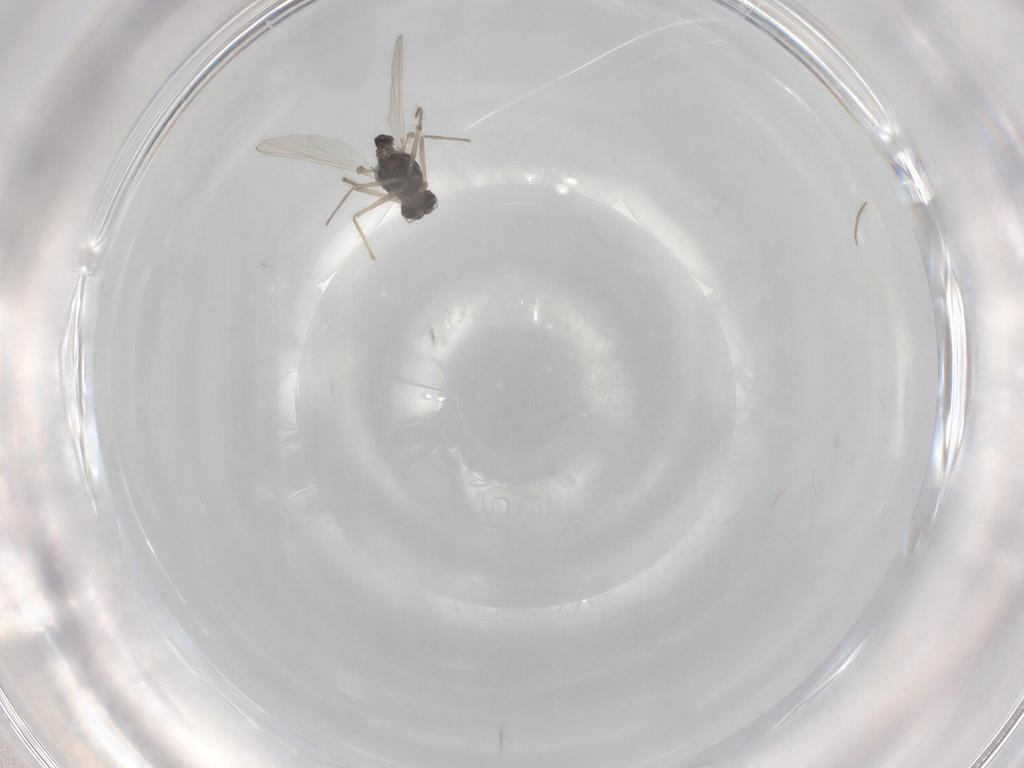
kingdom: Animalia
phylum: Arthropoda
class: Insecta
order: Diptera
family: Chironomidae
